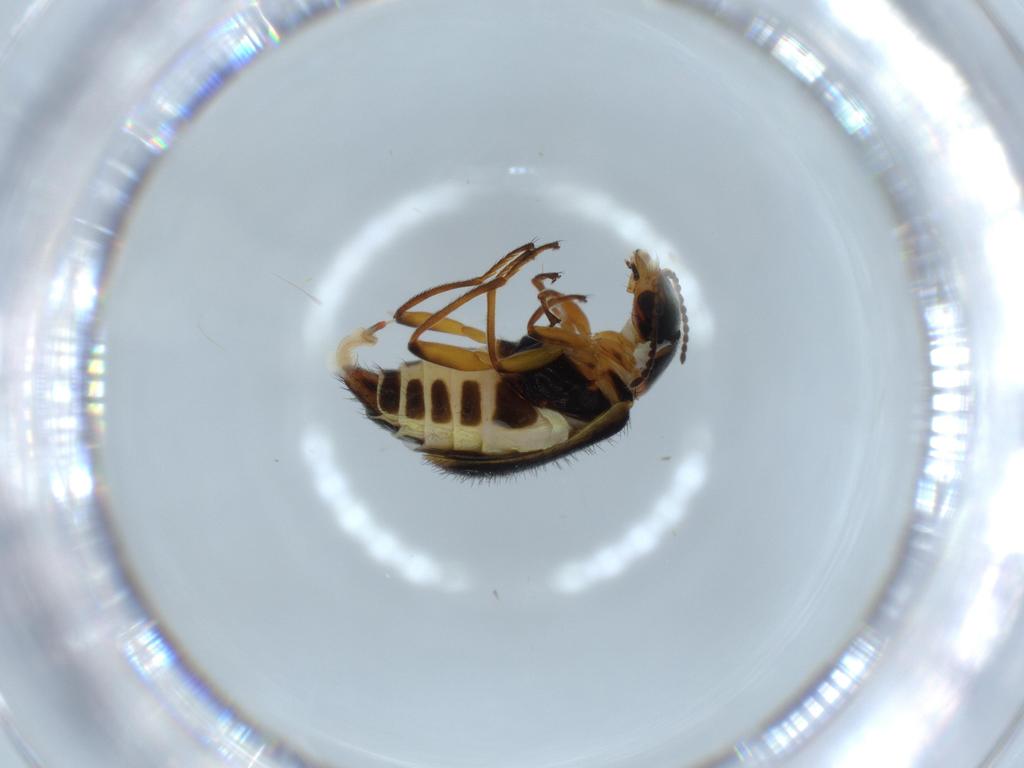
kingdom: Animalia
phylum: Arthropoda
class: Insecta
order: Coleoptera
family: Melyridae
